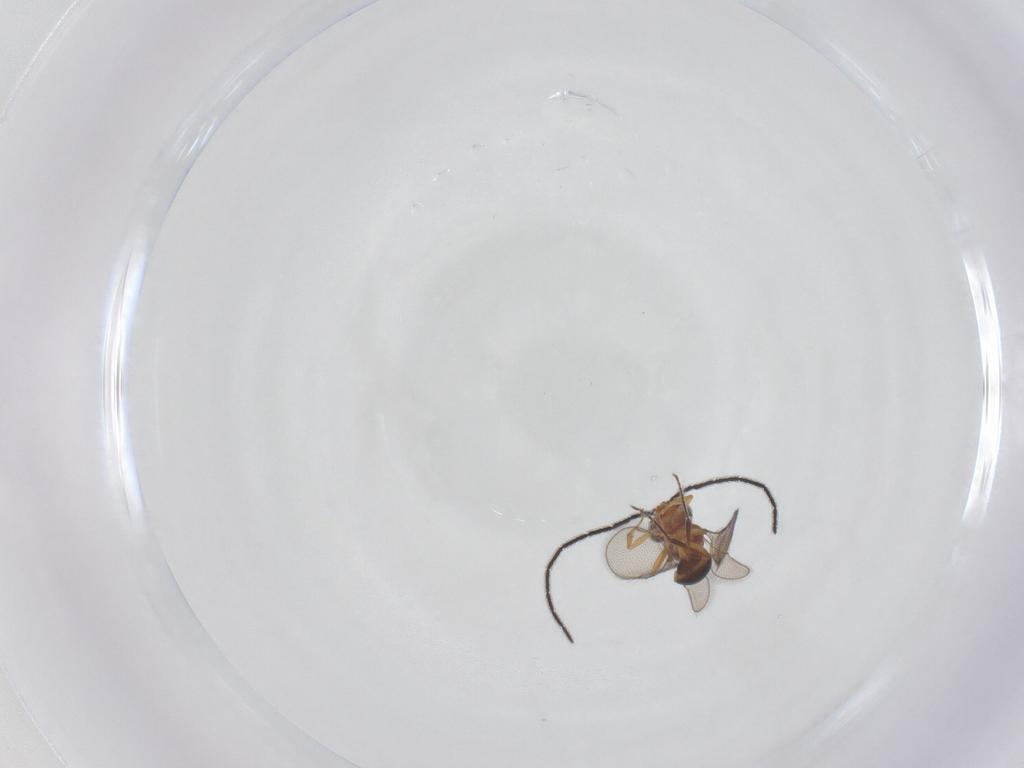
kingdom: Animalia
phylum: Arthropoda
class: Insecta
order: Hymenoptera
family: Scelionidae
